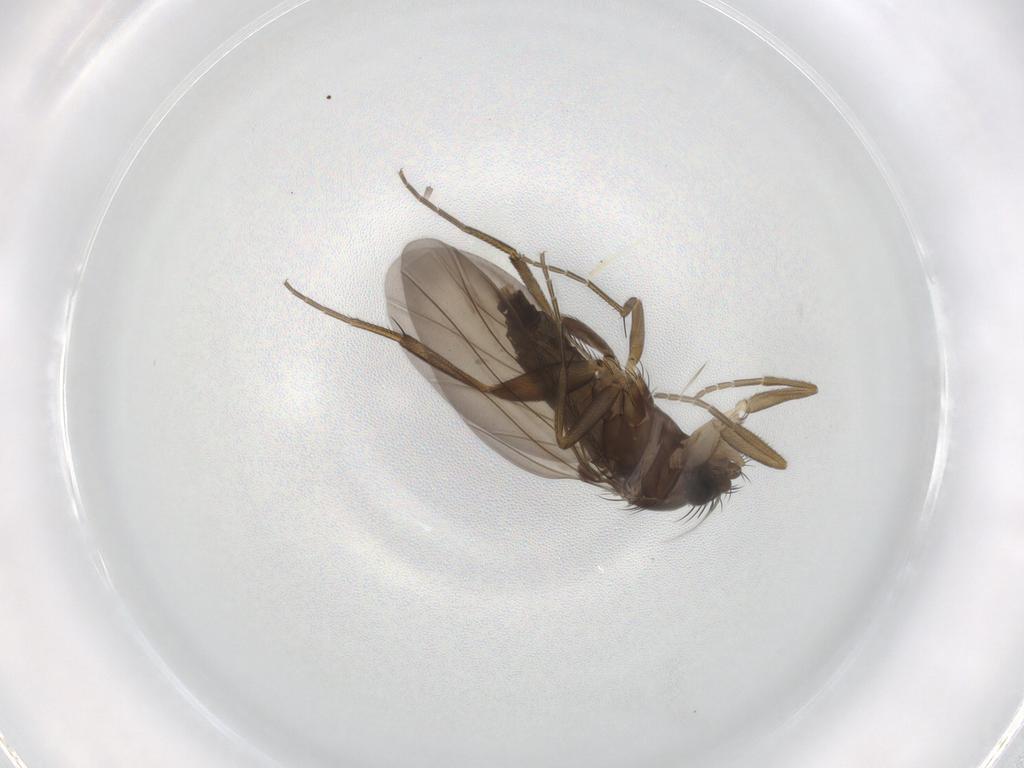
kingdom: Animalia
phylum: Arthropoda
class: Insecta
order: Diptera
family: Phoridae
